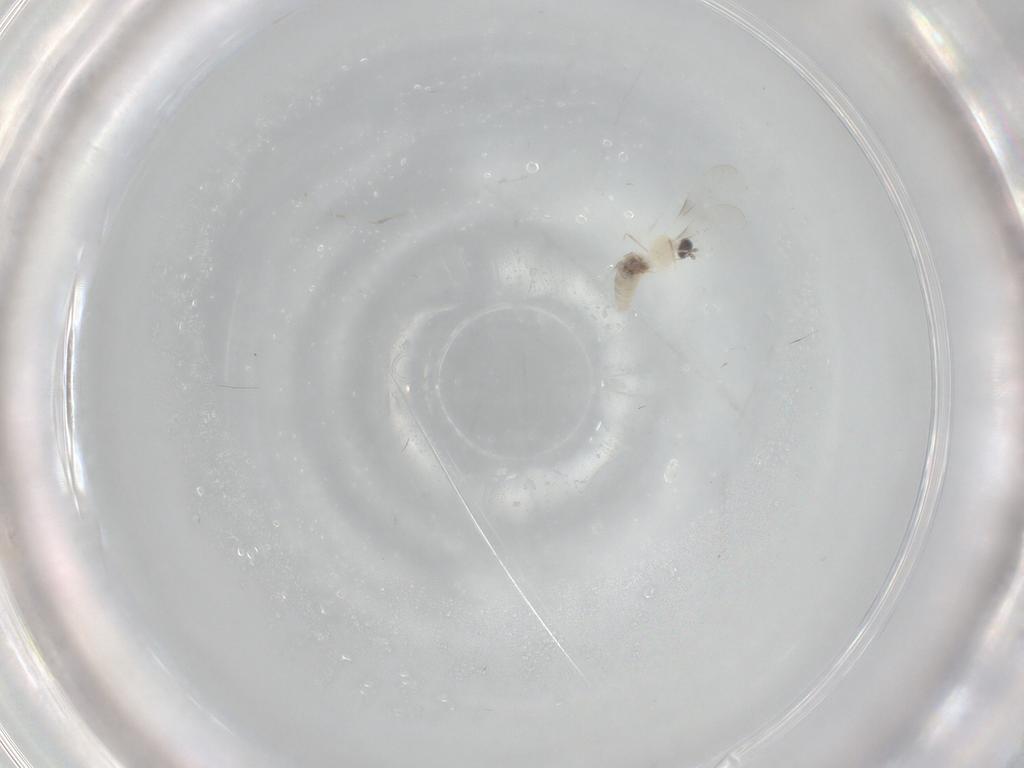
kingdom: Animalia
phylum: Arthropoda
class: Insecta
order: Diptera
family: Cecidomyiidae
